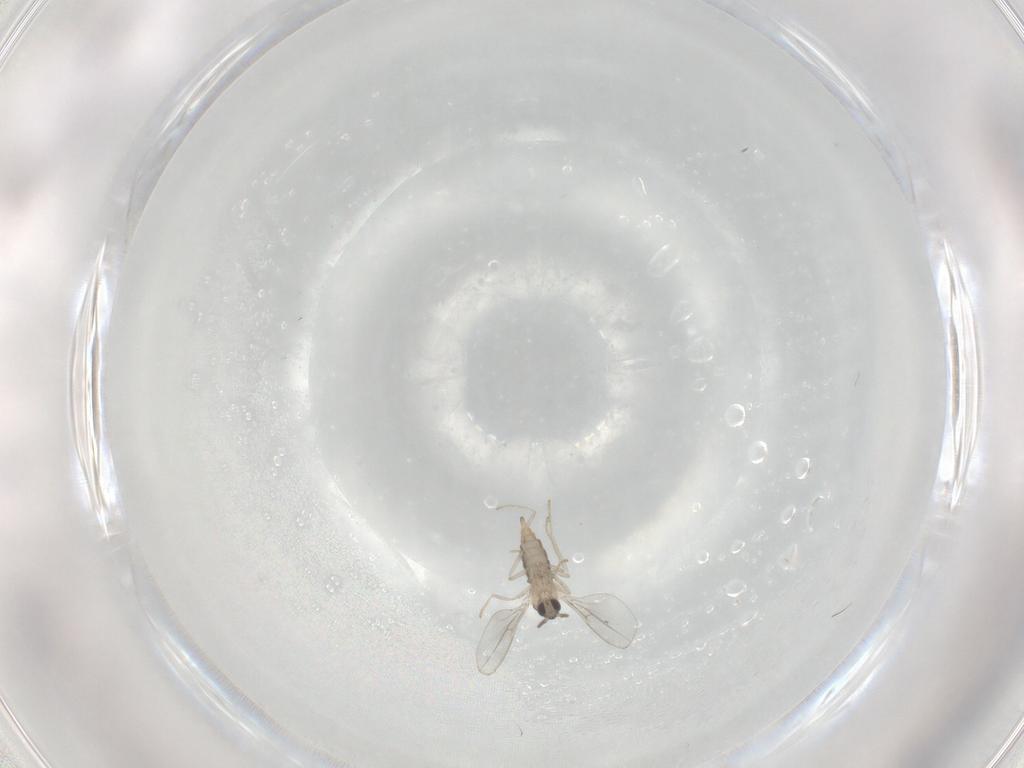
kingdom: Animalia
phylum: Arthropoda
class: Insecta
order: Diptera
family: Cecidomyiidae
